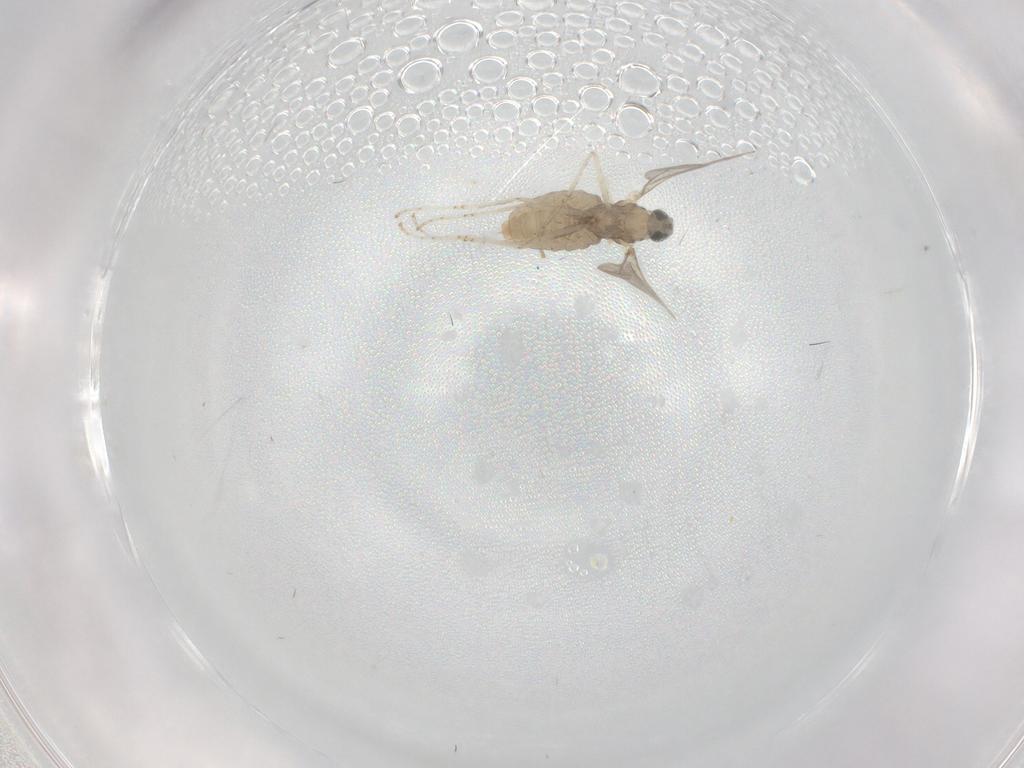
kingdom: Animalia
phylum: Arthropoda
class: Insecta
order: Diptera
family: Cecidomyiidae
